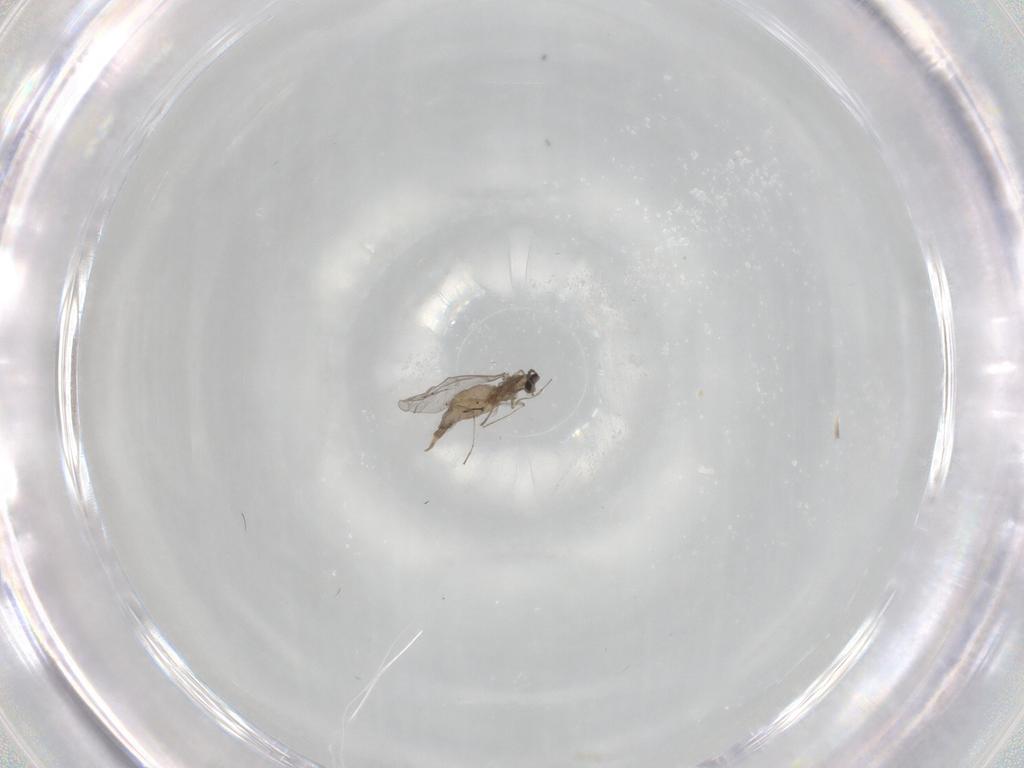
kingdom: Animalia
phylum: Arthropoda
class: Insecta
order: Diptera
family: Cecidomyiidae
